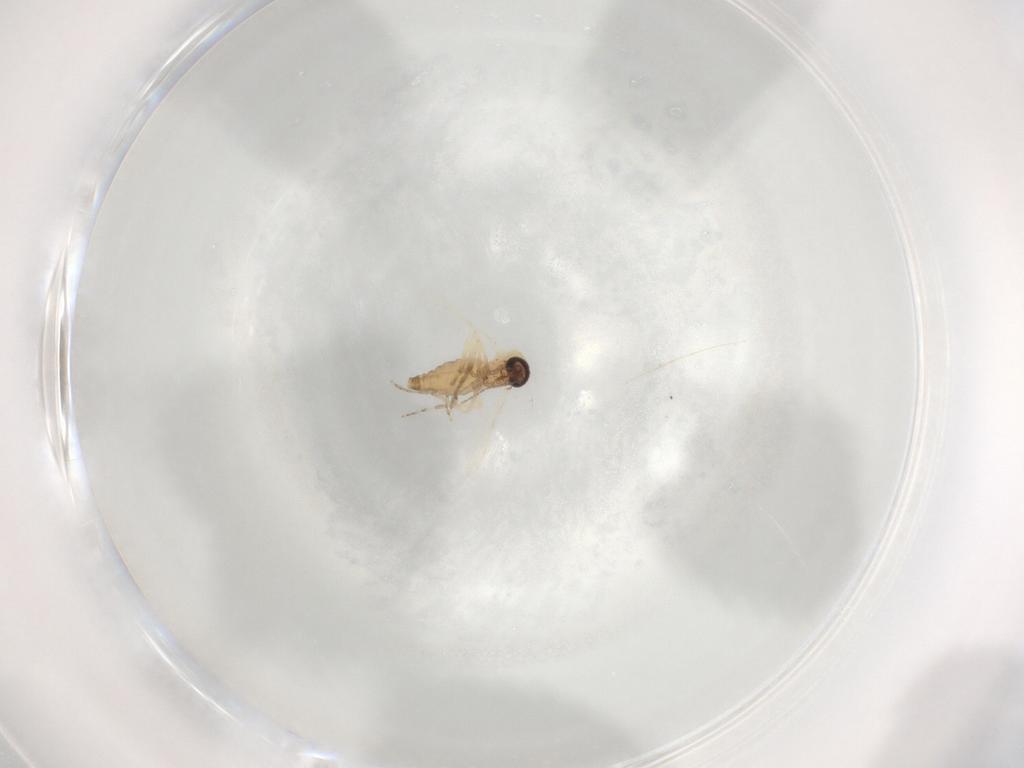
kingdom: Animalia
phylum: Arthropoda
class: Insecta
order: Diptera
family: Ceratopogonidae
